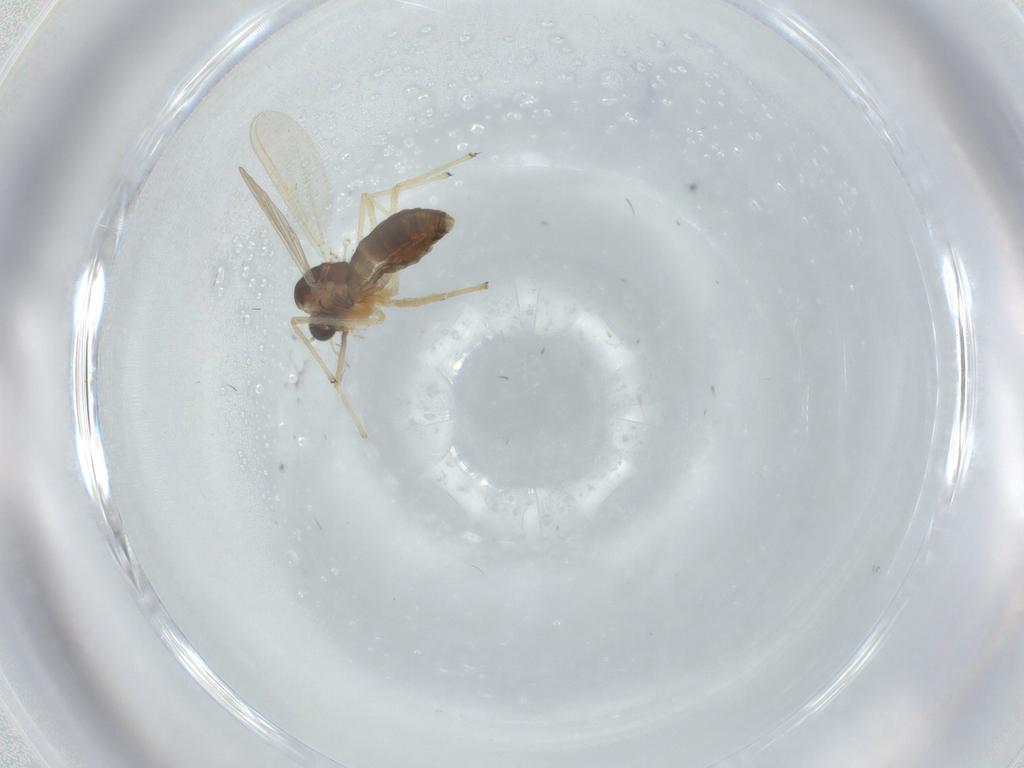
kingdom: Animalia
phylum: Arthropoda
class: Insecta
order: Diptera
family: Chironomidae
